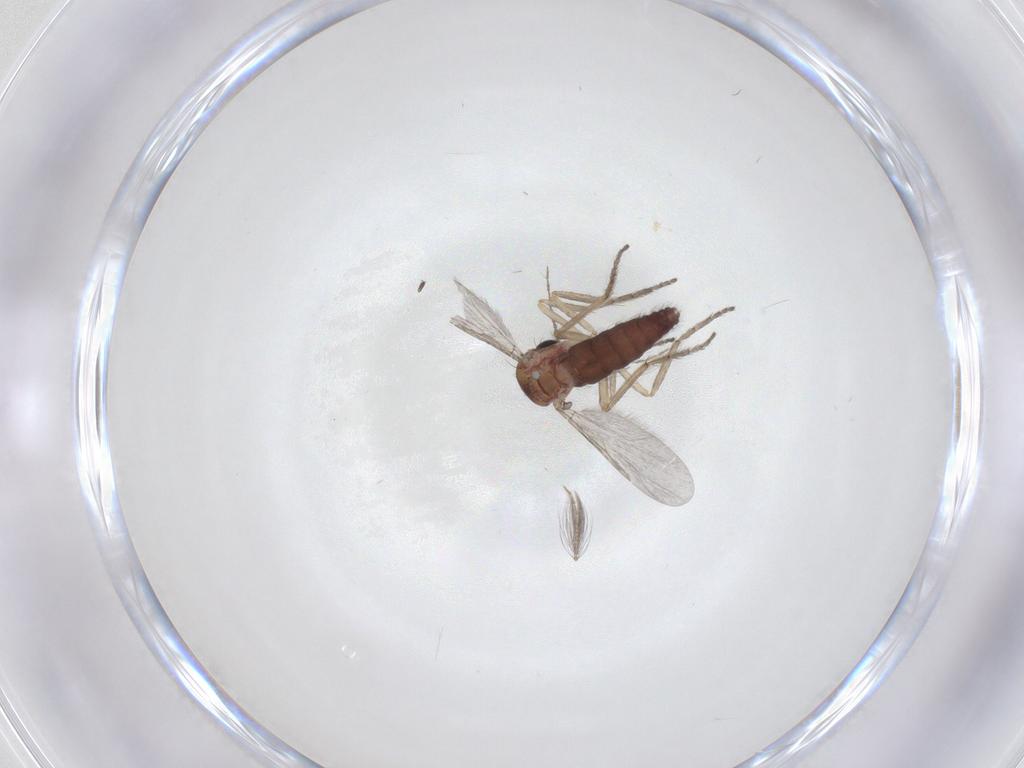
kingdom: Animalia
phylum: Arthropoda
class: Insecta
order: Diptera
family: Ceratopogonidae
